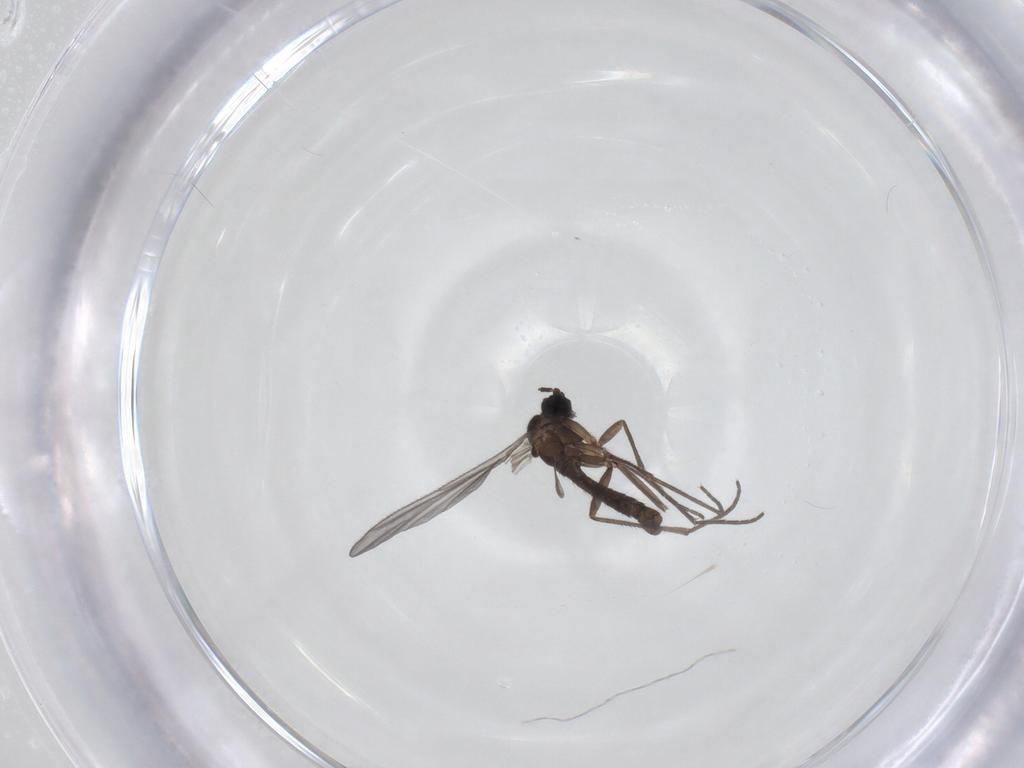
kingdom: Animalia
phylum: Arthropoda
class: Insecta
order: Diptera
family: Sciaridae
